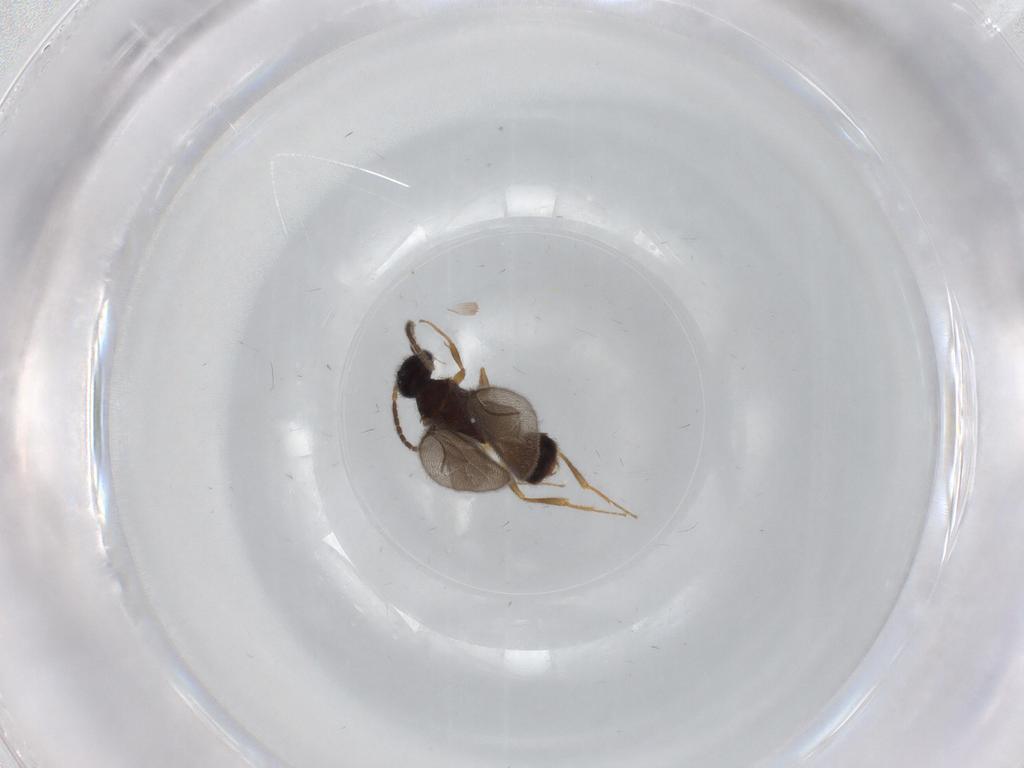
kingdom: Animalia
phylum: Arthropoda
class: Insecta
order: Hymenoptera
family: Bethylidae
